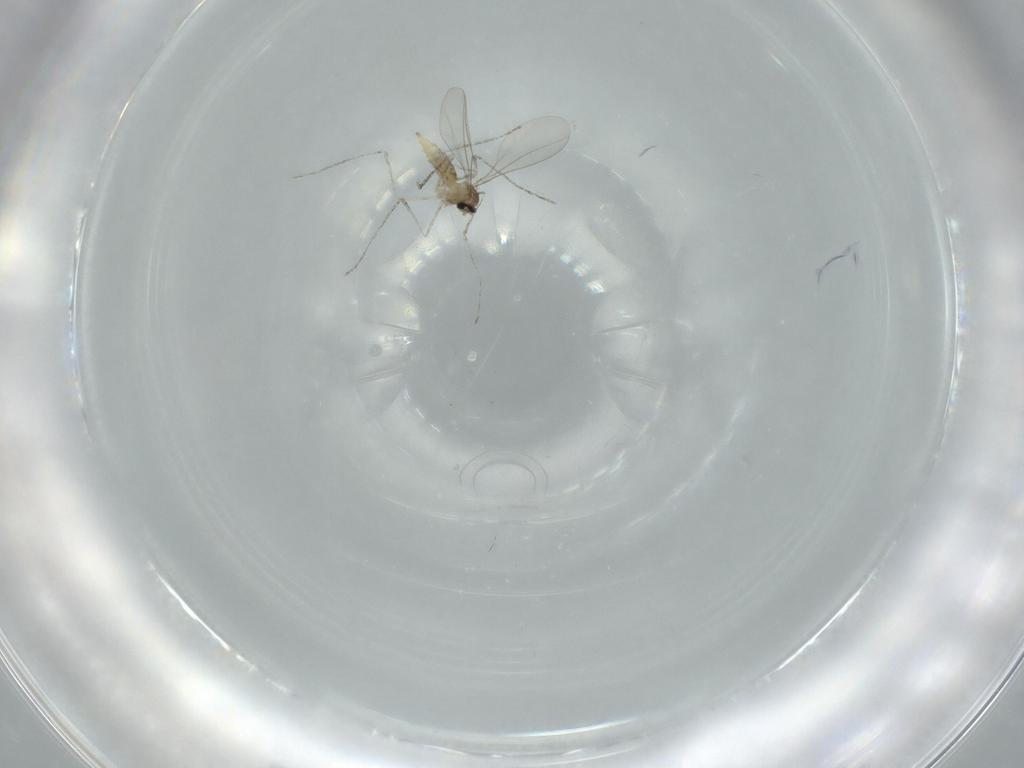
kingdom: Animalia
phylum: Arthropoda
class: Insecta
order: Diptera
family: Cecidomyiidae
